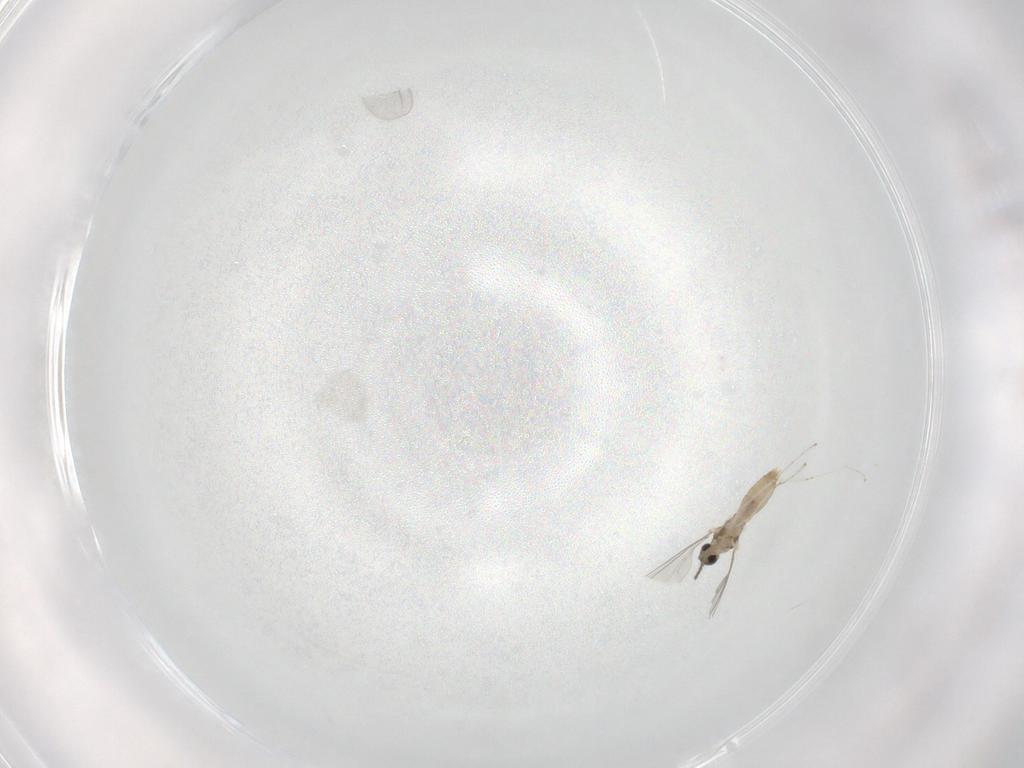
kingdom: Animalia
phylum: Arthropoda
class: Insecta
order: Diptera
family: Cecidomyiidae
